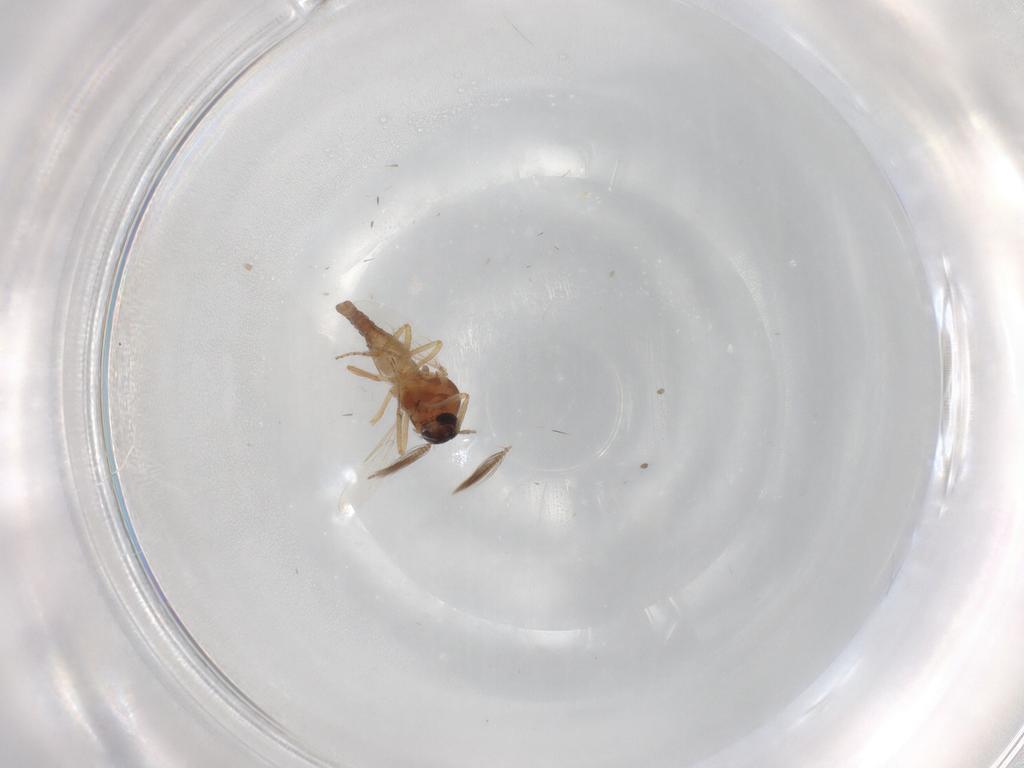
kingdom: Animalia
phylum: Arthropoda
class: Insecta
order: Diptera
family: Ceratopogonidae
